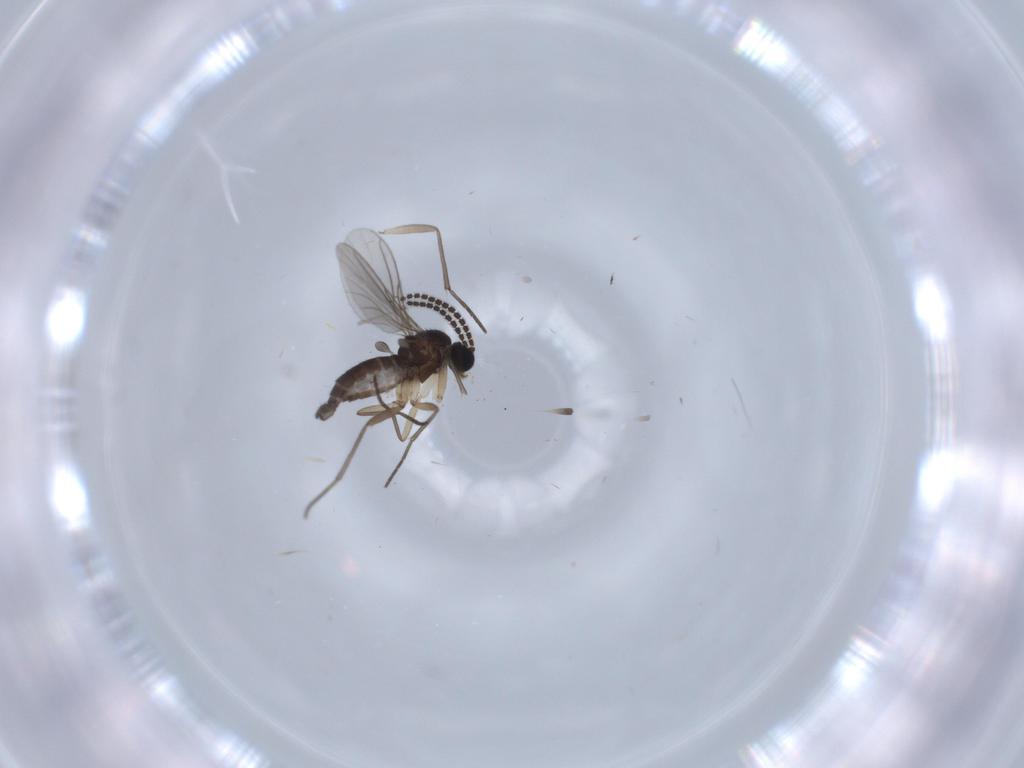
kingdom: Animalia
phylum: Arthropoda
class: Insecta
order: Diptera
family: Sciaridae
